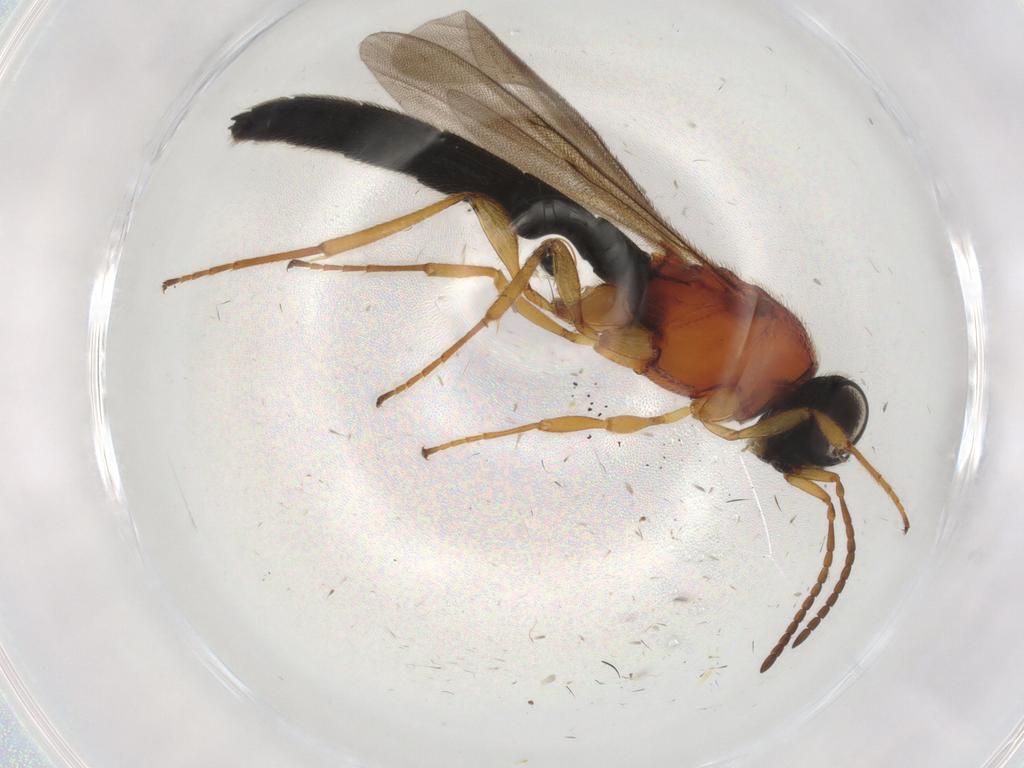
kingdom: Animalia
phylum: Arthropoda
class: Insecta
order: Hymenoptera
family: Scelionidae
